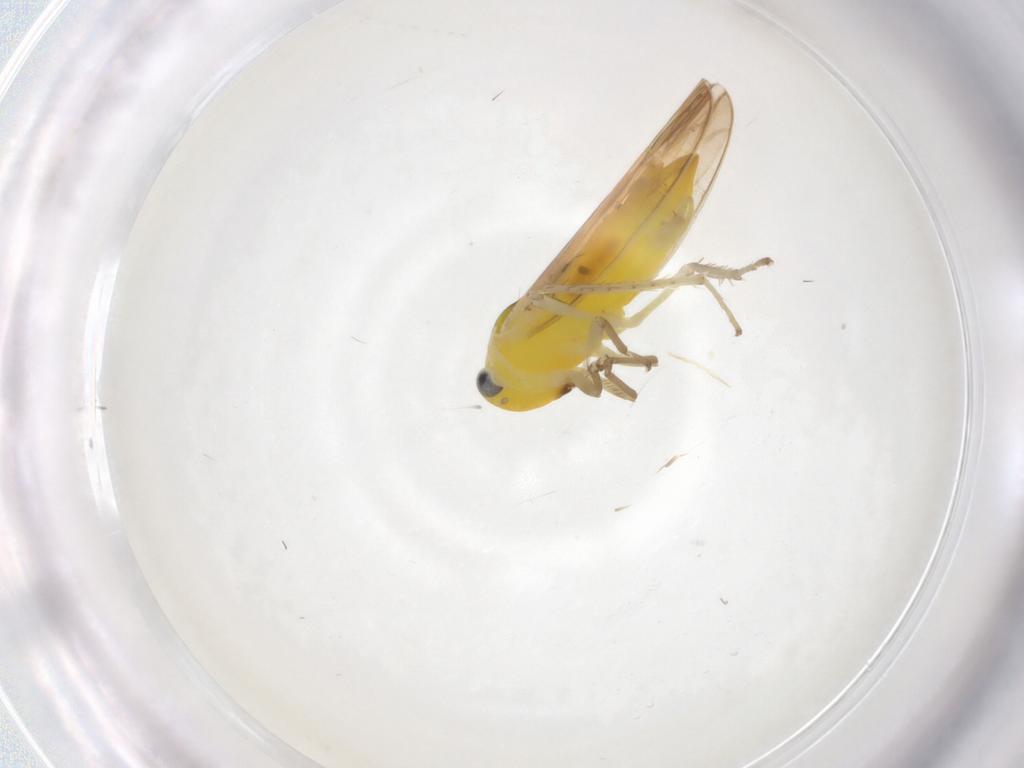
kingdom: Animalia
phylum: Arthropoda
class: Insecta
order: Hemiptera
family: Cicadellidae
